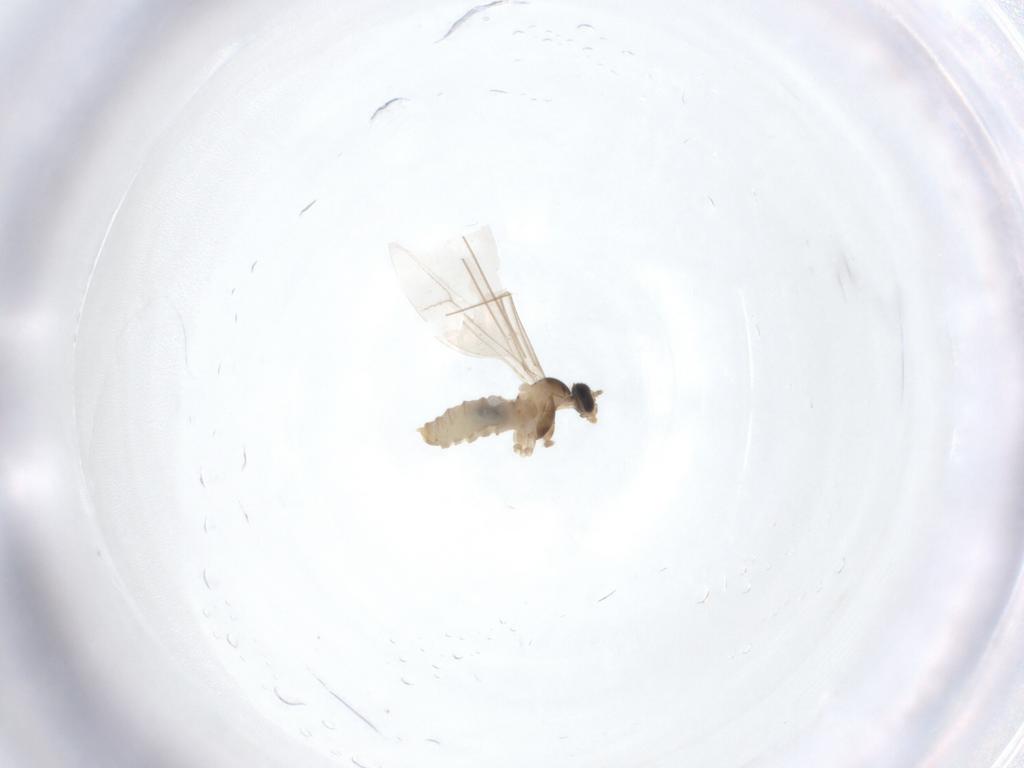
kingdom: Animalia
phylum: Arthropoda
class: Insecta
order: Diptera
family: Cecidomyiidae
